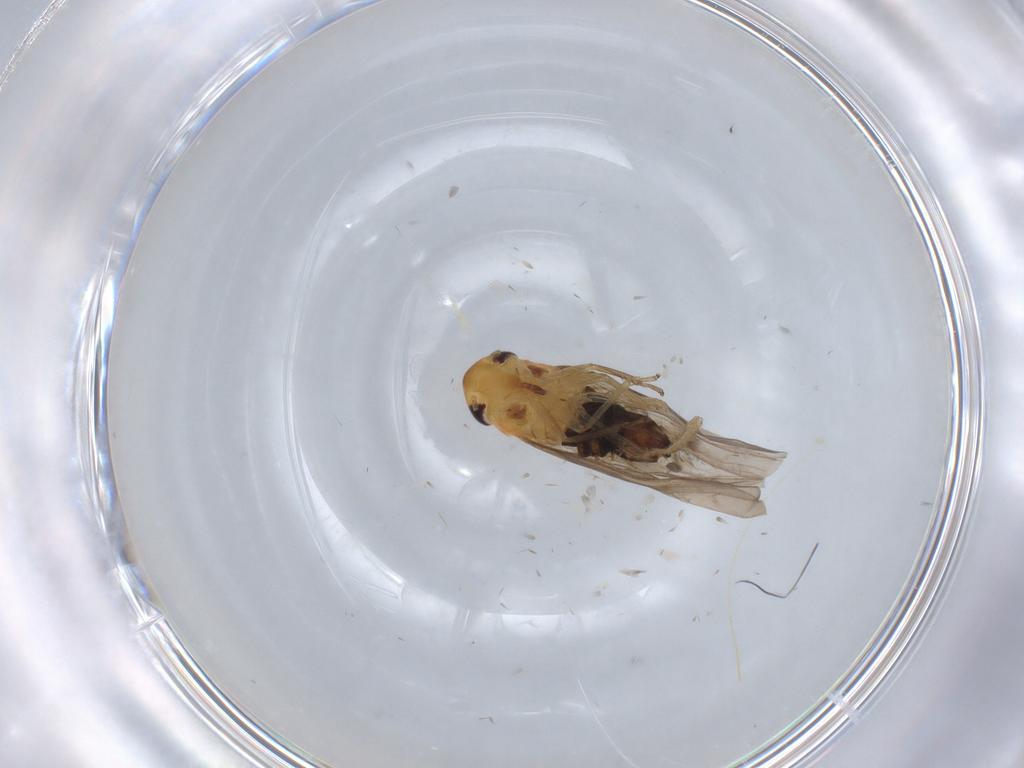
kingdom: Animalia
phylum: Arthropoda
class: Insecta
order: Hemiptera
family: Cicadellidae
